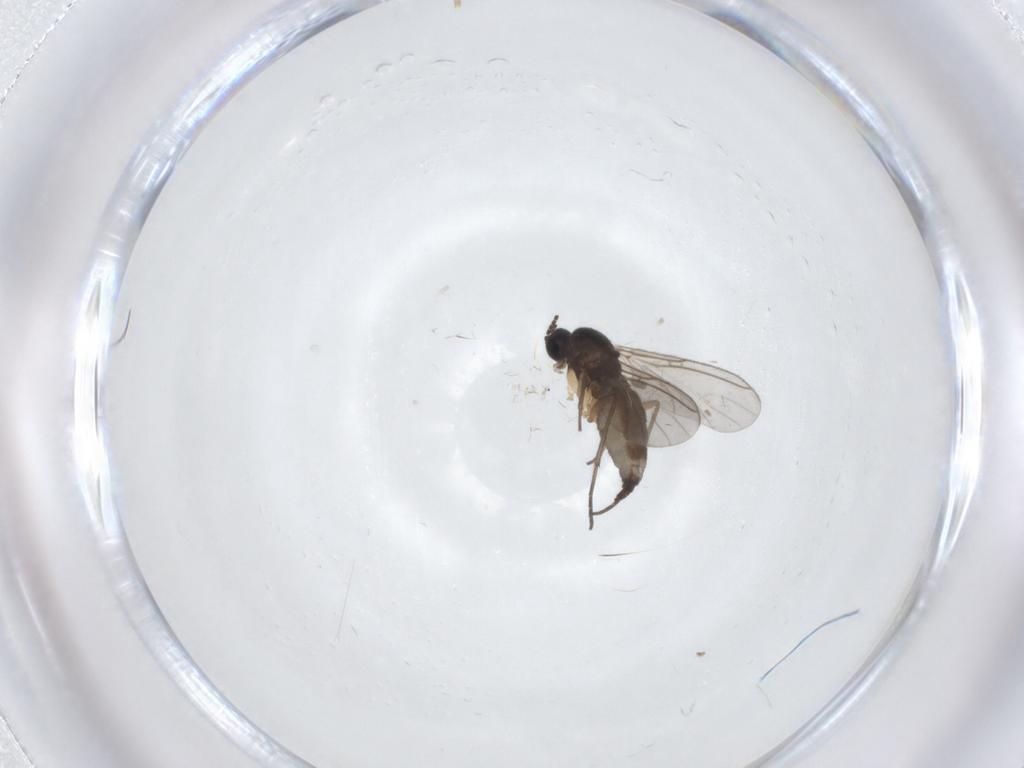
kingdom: Animalia
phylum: Arthropoda
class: Insecta
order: Diptera
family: Sciaridae
